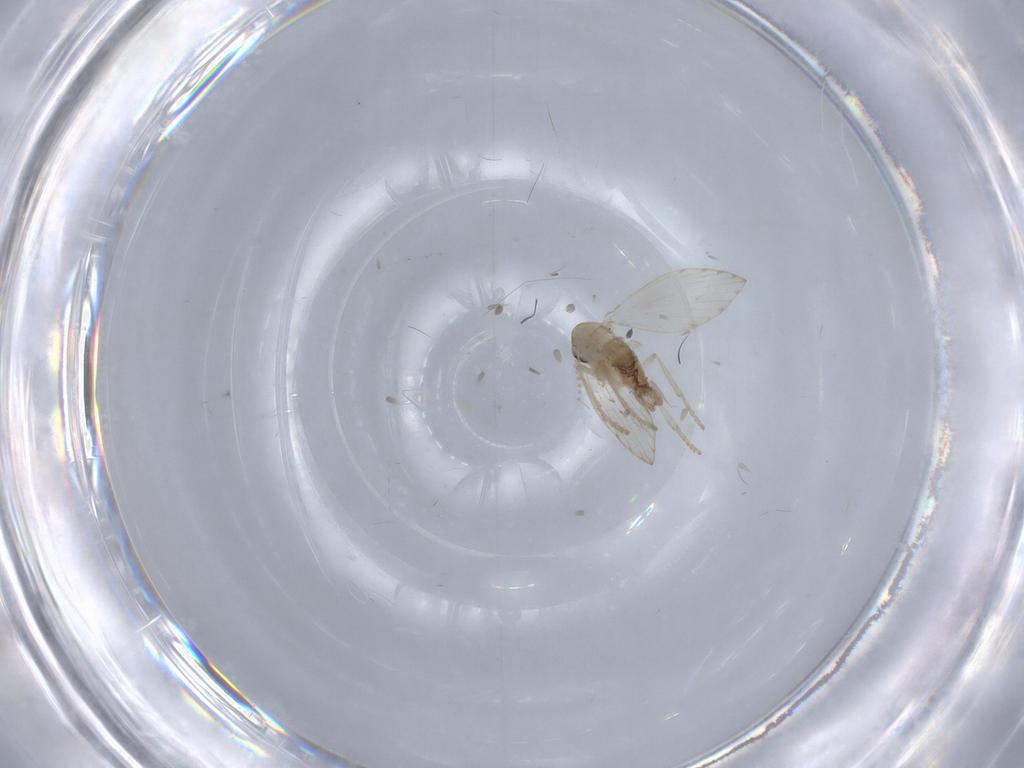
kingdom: Animalia
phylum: Arthropoda
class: Insecta
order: Diptera
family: Psychodidae
